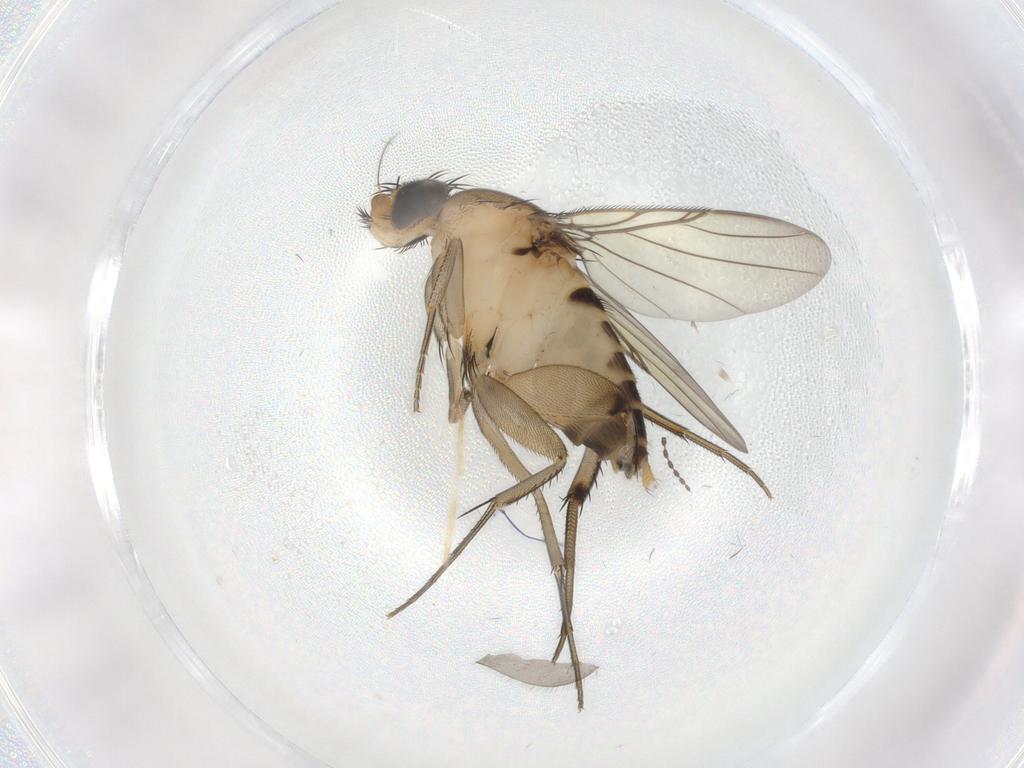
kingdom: Animalia
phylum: Arthropoda
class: Insecta
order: Diptera
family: Phoridae
